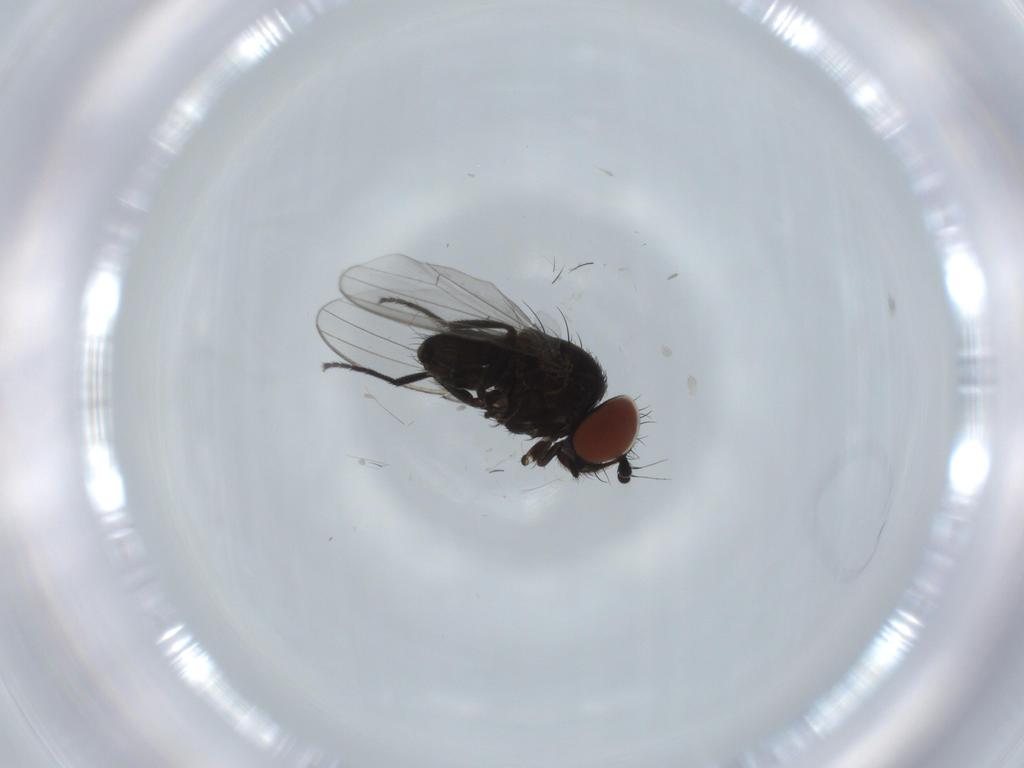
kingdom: Animalia
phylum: Arthropoda
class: Insecta
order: Diptera
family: Milichiidae
